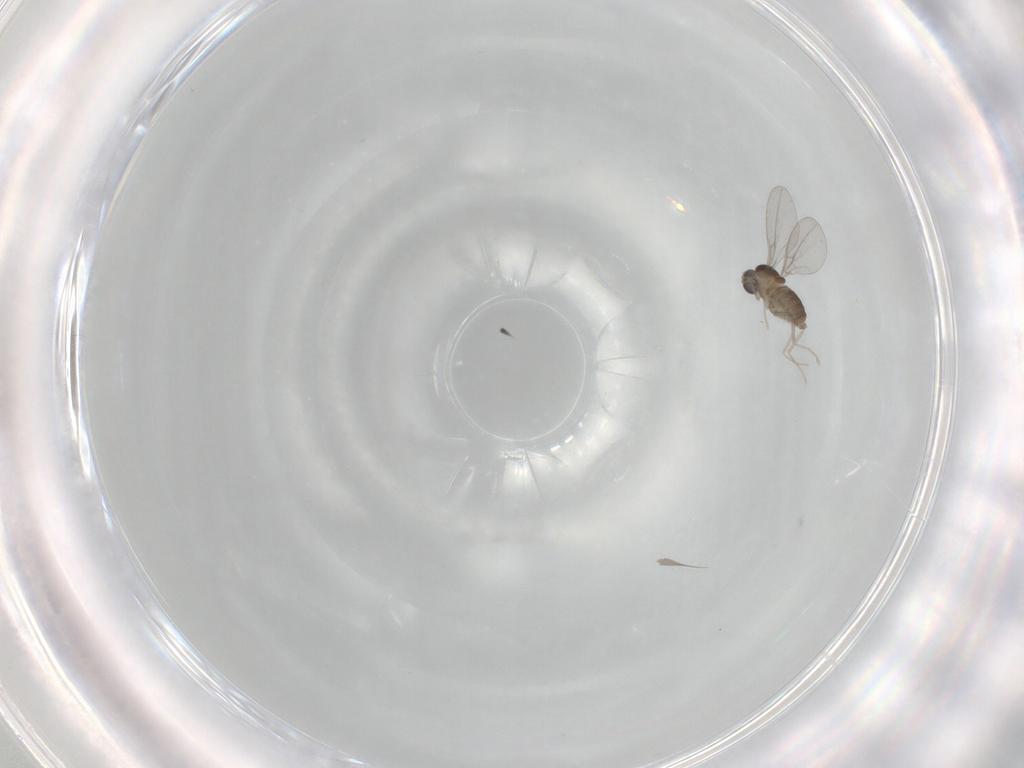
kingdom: Animalia
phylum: Arthropoda
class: Insecta
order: Diptera
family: Cecidomyiidae
